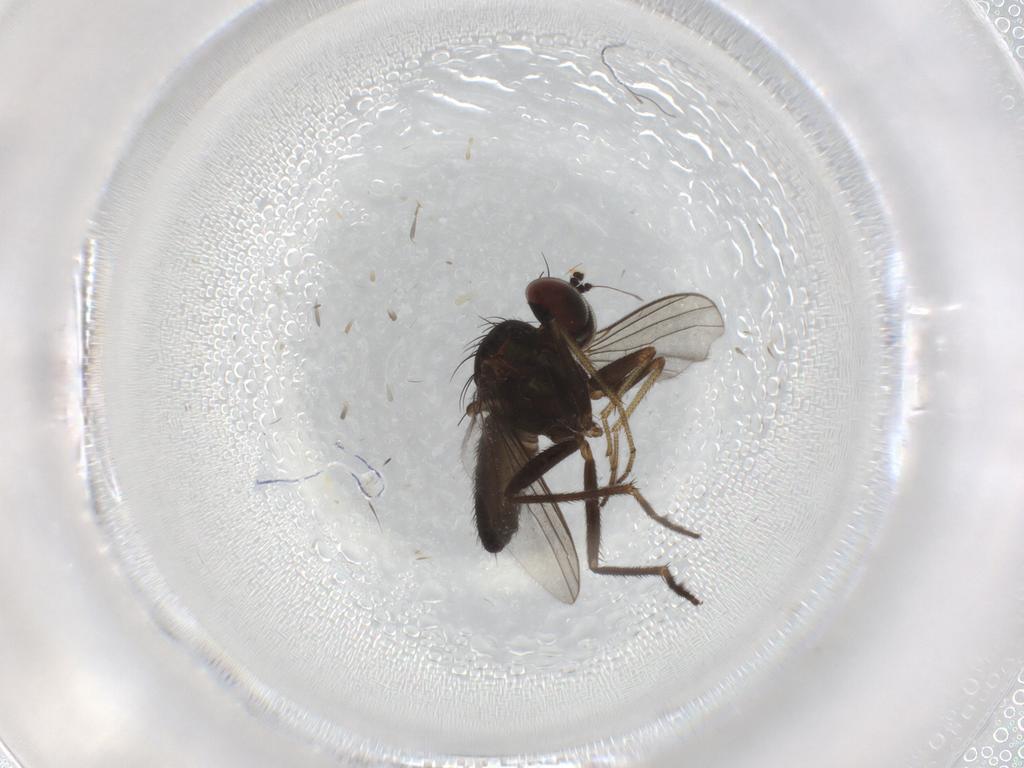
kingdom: Animalia
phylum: Arthropoda
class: Insecta
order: Diptera
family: Dolichopodidae
